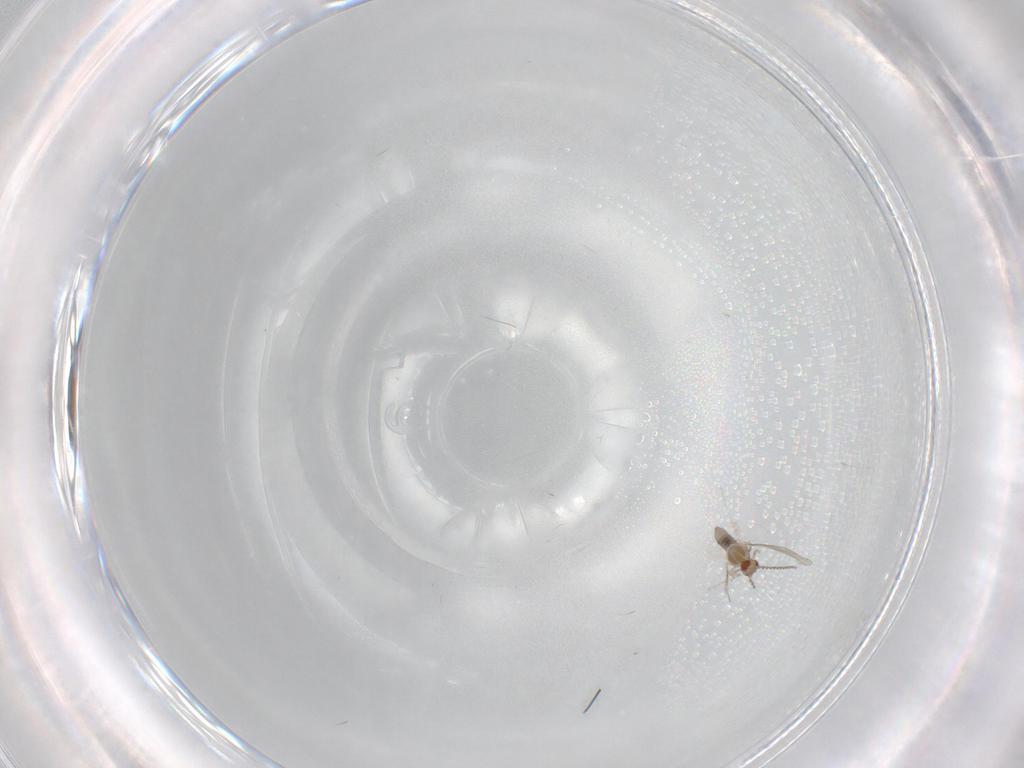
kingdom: Animalia
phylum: Arthropoda
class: Insecta
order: Diptera
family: Cecidomyiidae
